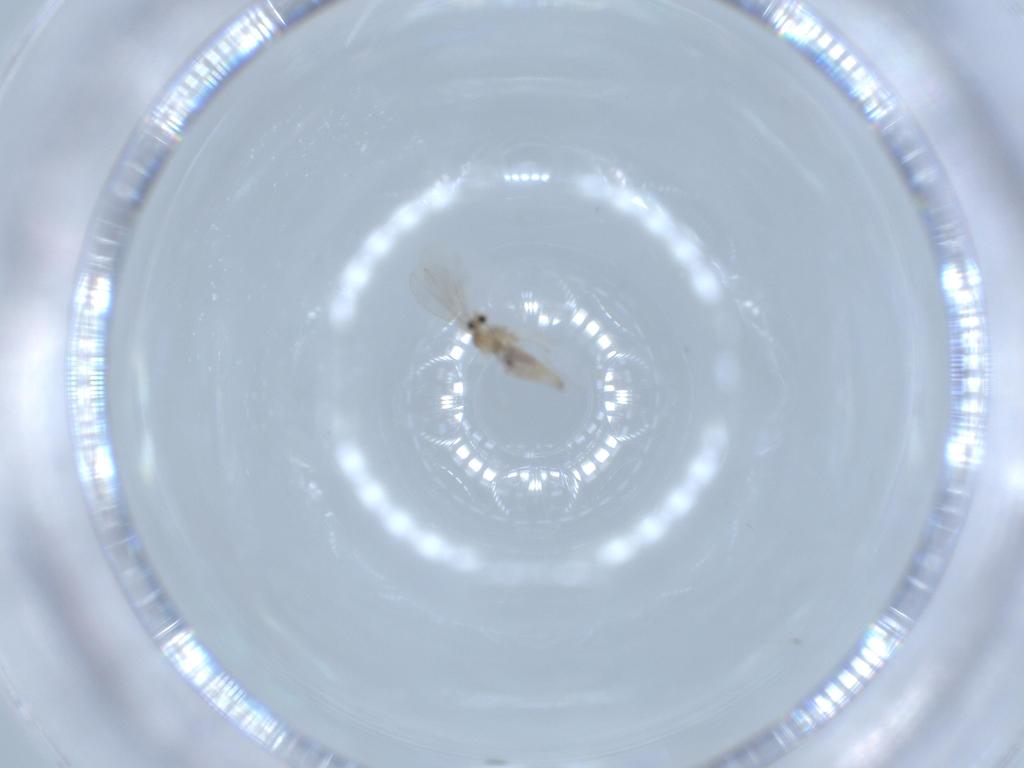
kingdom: Animalia
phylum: Arthropoda
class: Insecta
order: Diptera
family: Cecidomyiidae
